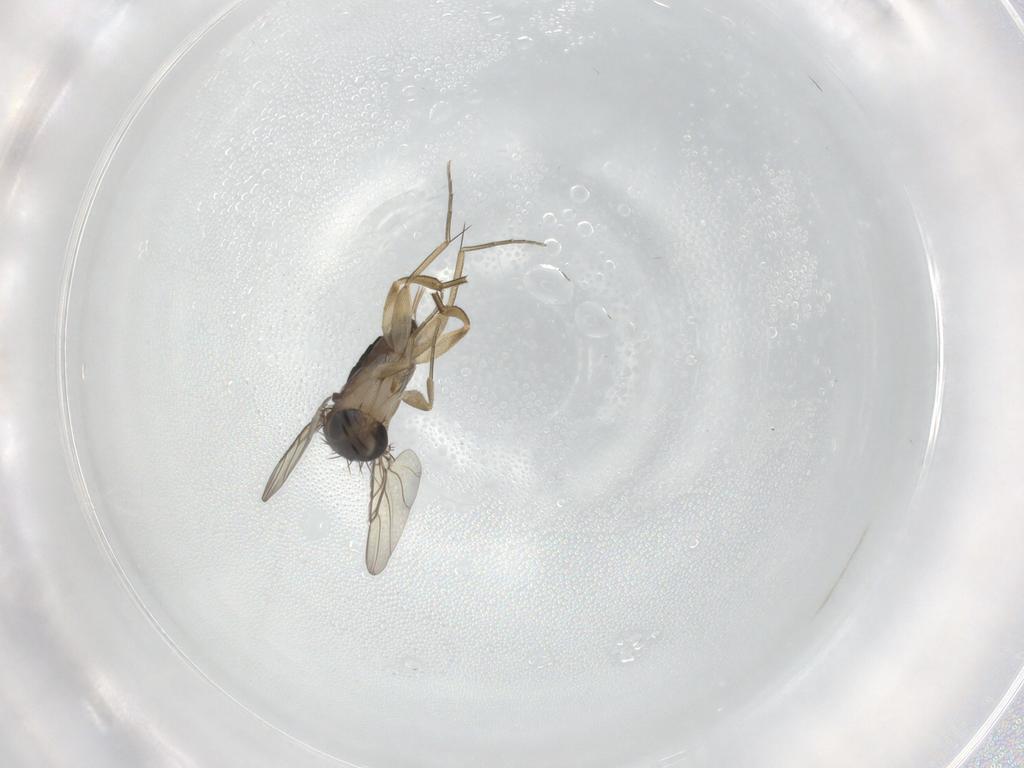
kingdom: Animalia
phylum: Arthropoda
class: Insecta
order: Diptera
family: Phoridae
